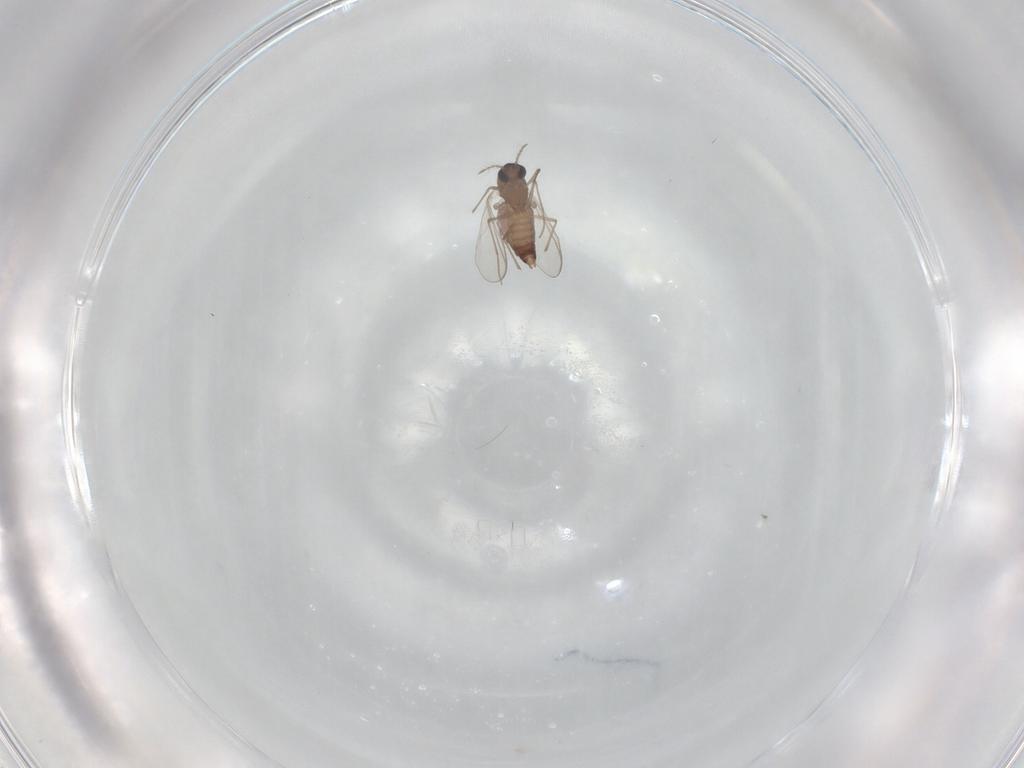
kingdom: Animalia
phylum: Arthropoda
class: Insecta
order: Diptera
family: Chironomidae
